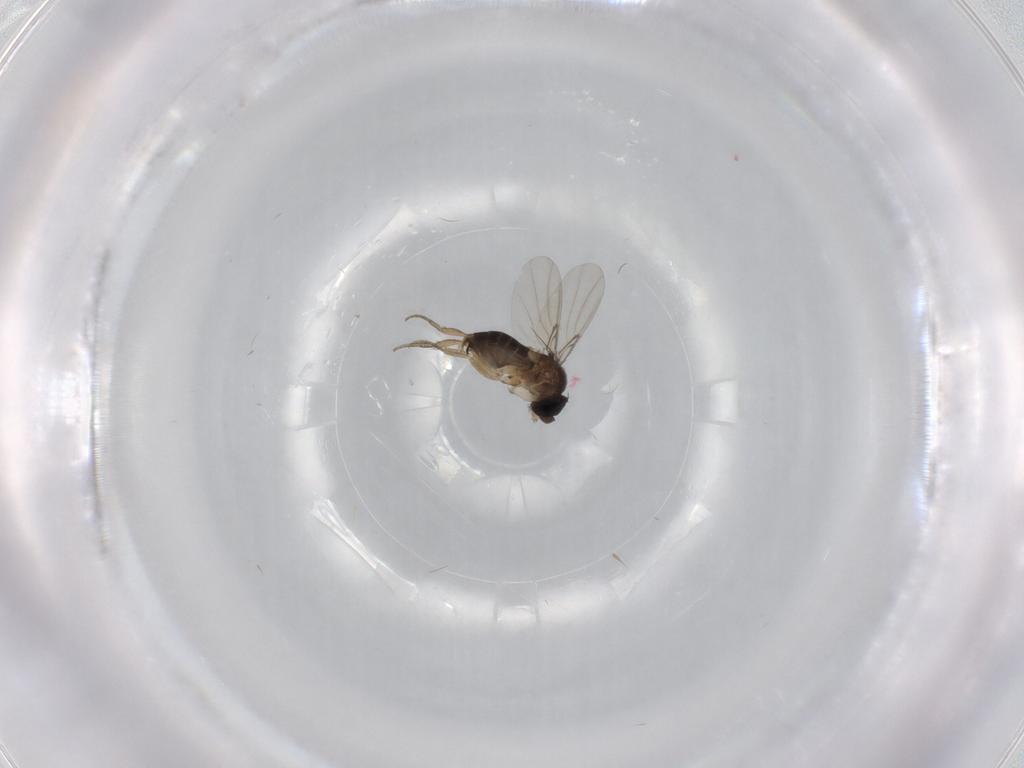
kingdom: Animalia
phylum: Arthropoda
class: Insecta
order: Diptera
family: Phoridae
